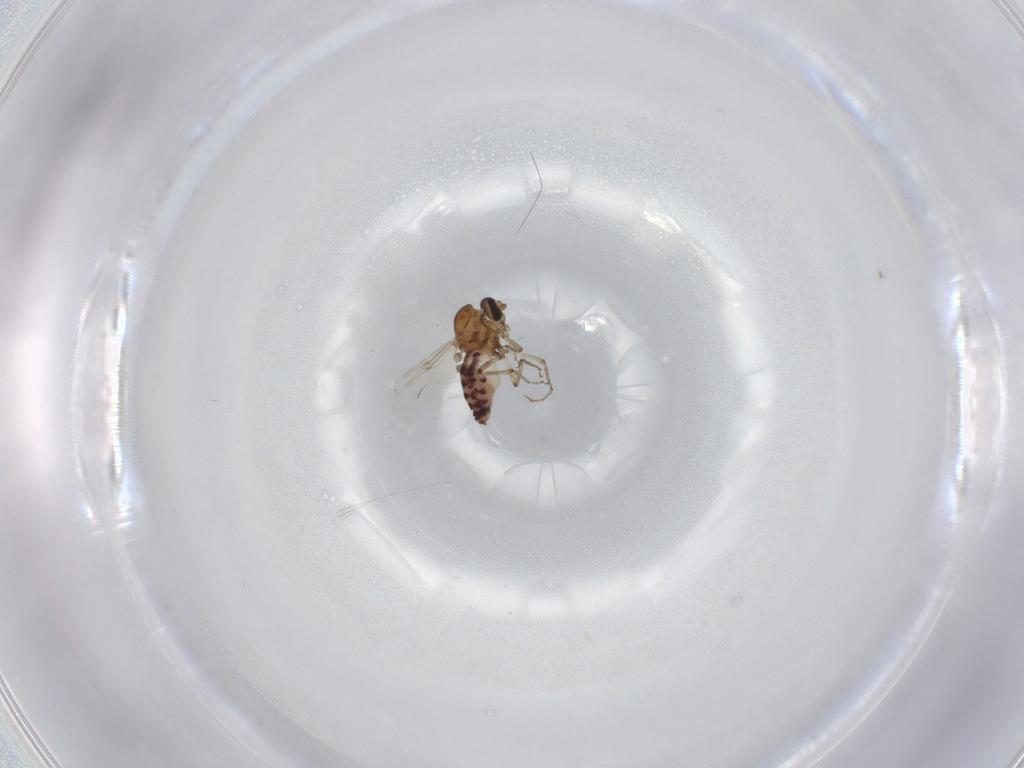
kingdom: Animalia
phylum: Arthropoda
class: Insecta
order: Diptera
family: Ceratopogonidae
